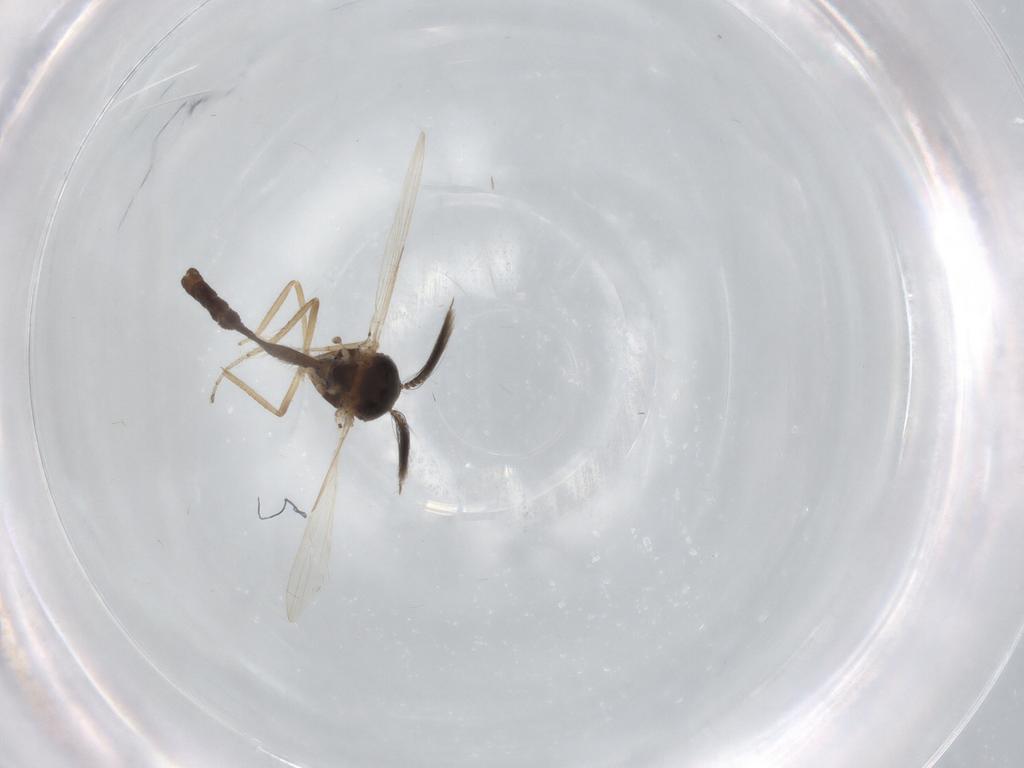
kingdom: Animalia
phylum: Arthropoda
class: Insecta
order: Diptera
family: Ceratopogonidae
